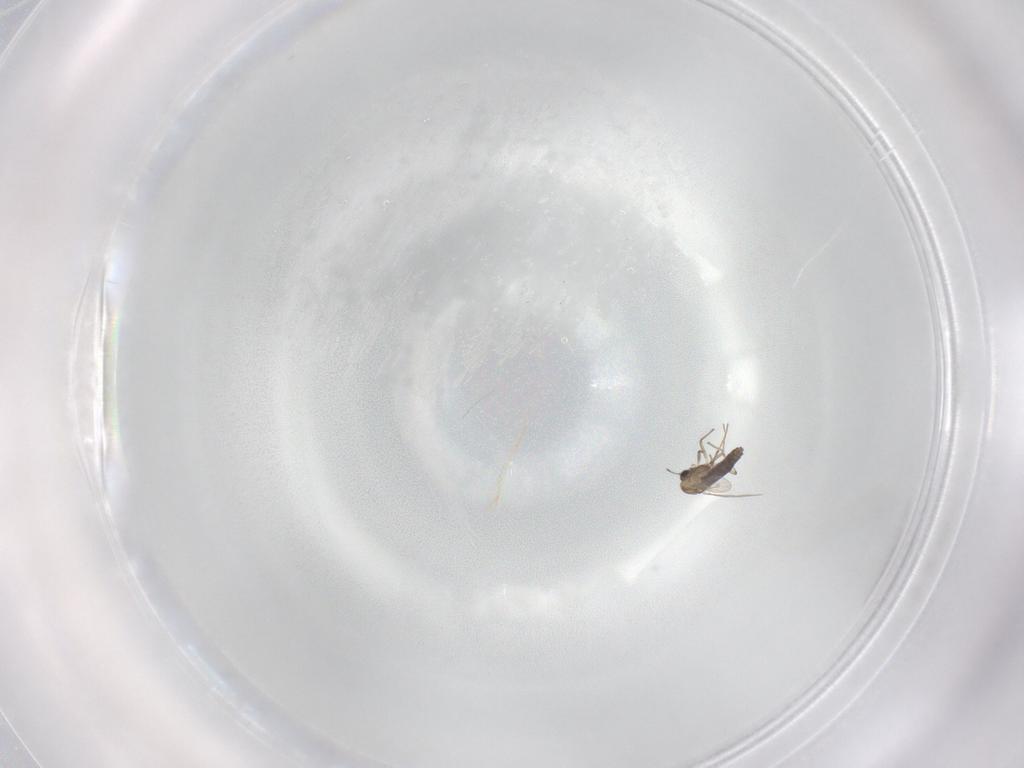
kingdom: Animalia
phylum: Arthropoda
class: Insecta
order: Diptera
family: Chironomidae
